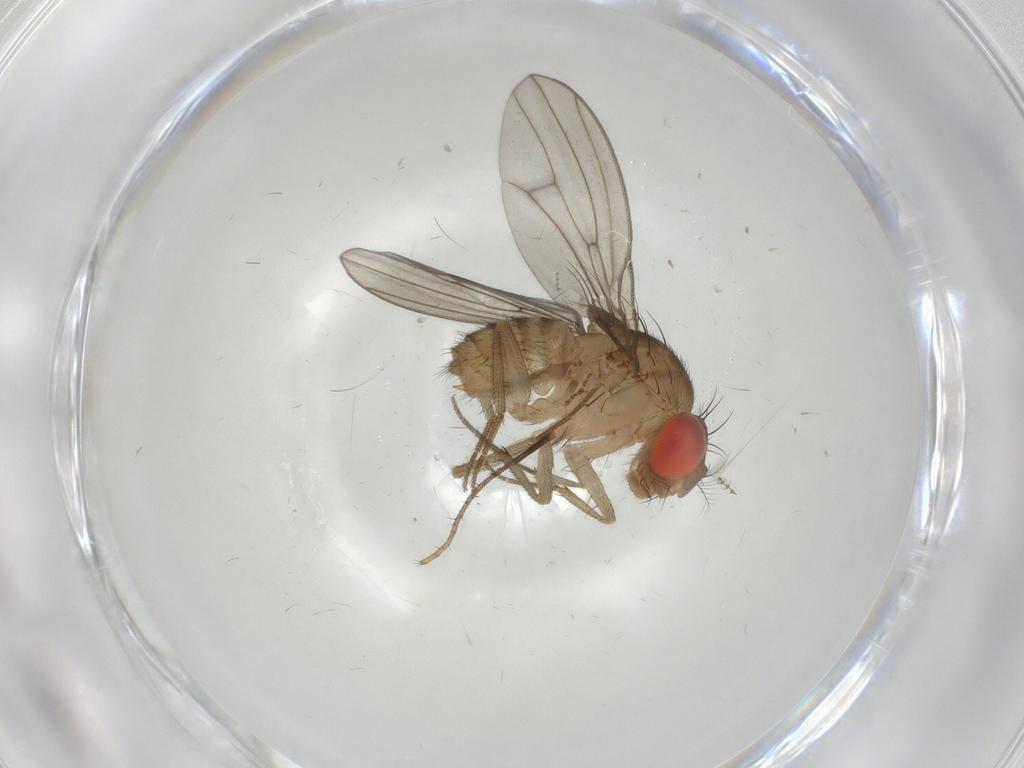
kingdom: Animalia
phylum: Arthropoda
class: Insecta
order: Diptera
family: Tipulidae
